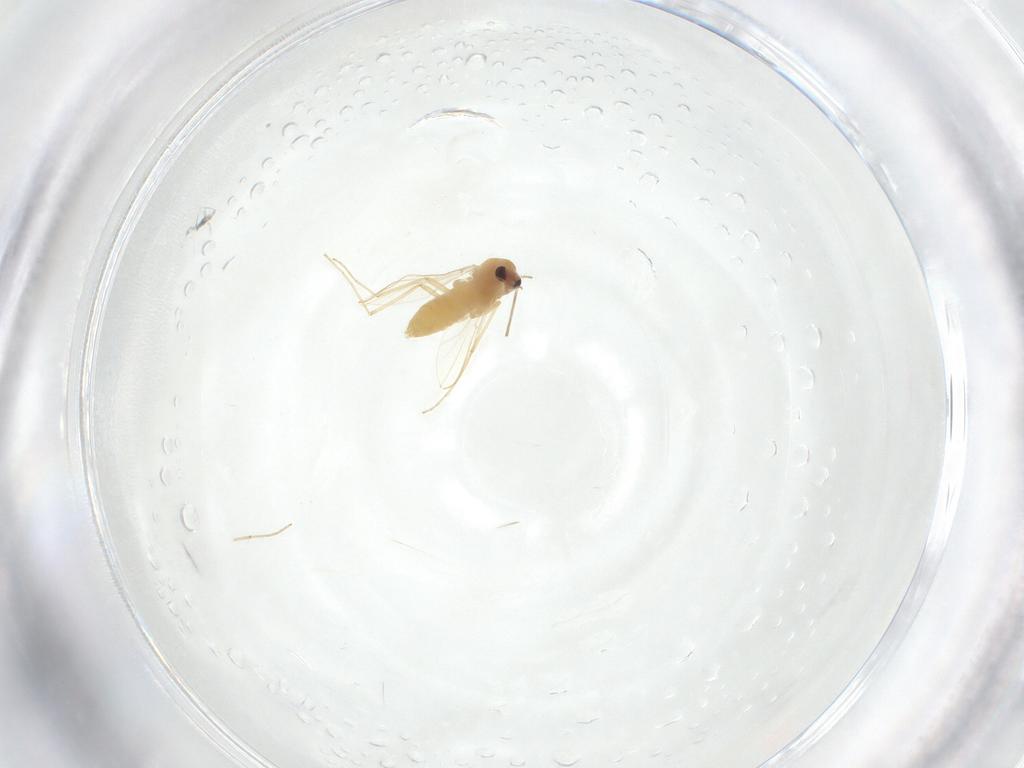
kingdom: Animalia
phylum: Arthropoda
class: Insecta
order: Diptera
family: Chironomidae
